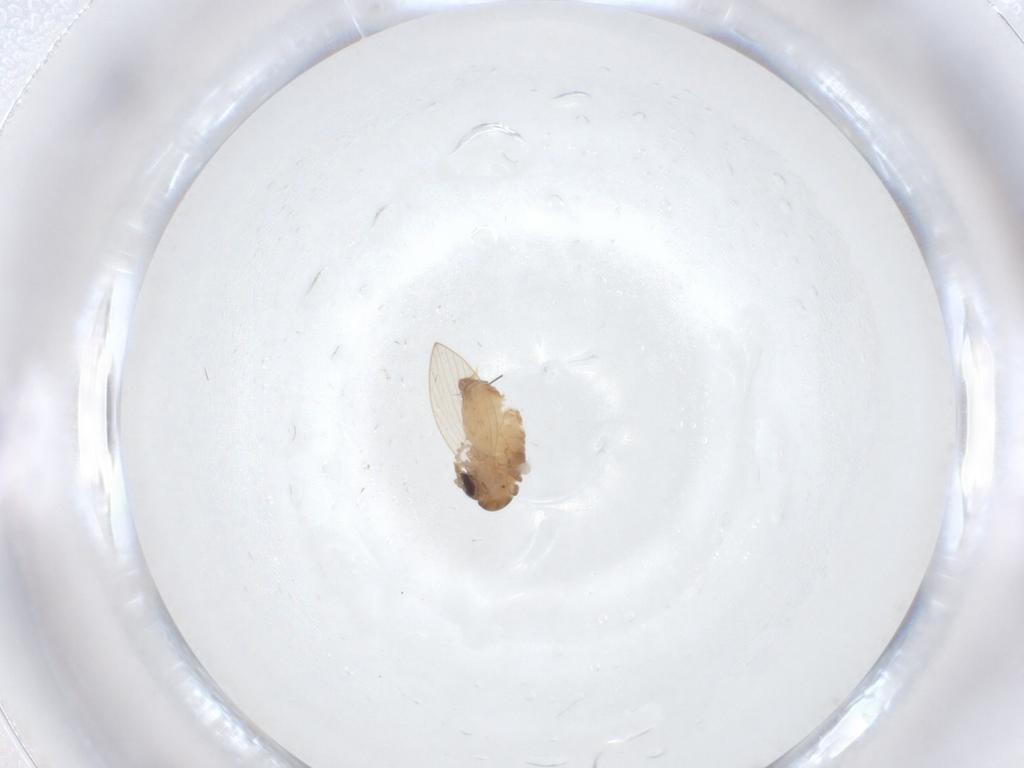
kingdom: Animalia
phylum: Arthropoda
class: Insecta
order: Diptera
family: Psychodidae
